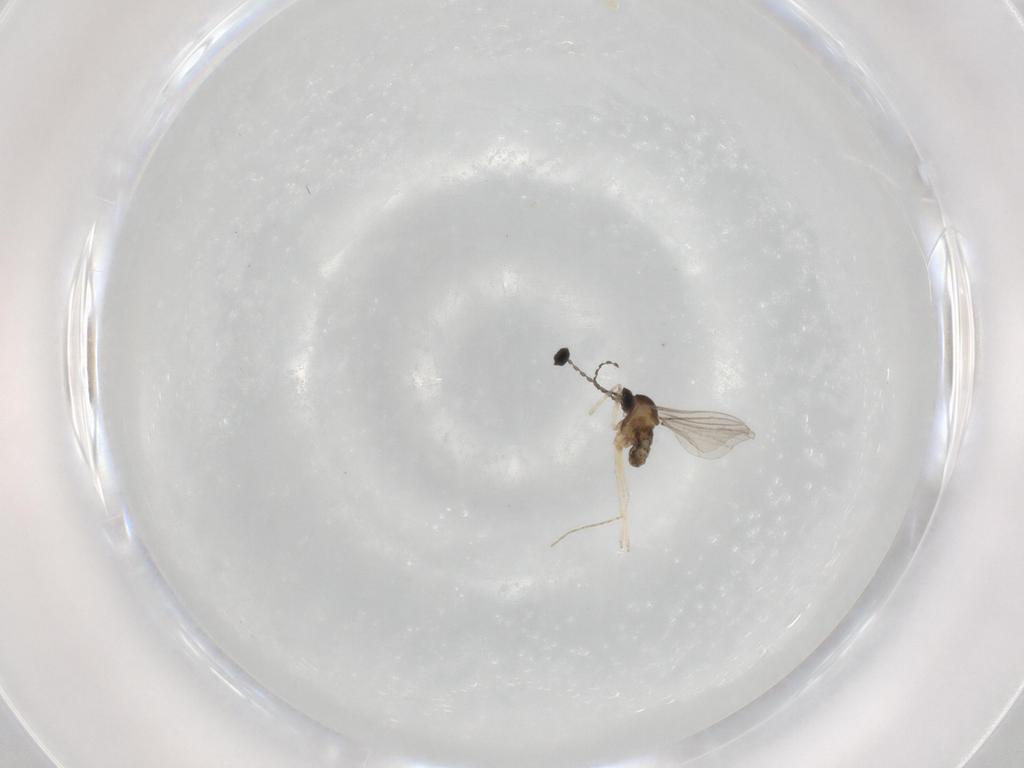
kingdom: Animalia
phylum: Arthropoda
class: Insecta
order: Diptera
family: Cecidomyiidae
